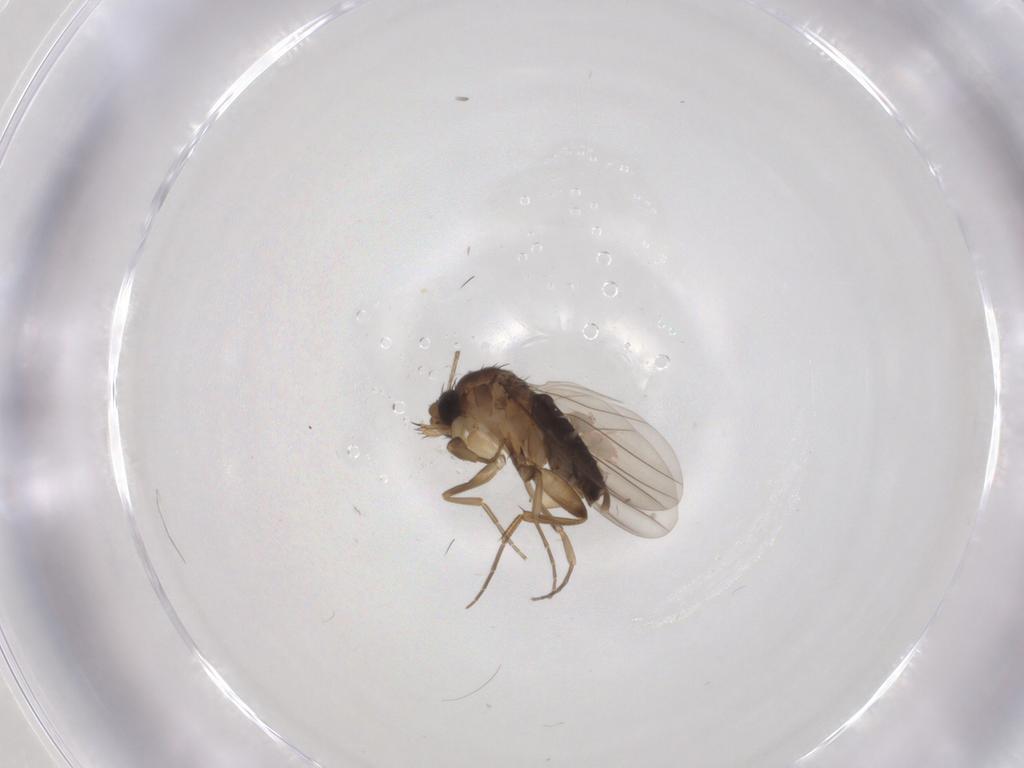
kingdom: Animalia
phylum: Arthropoda
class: Insecta
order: Diptera
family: Phoridae
